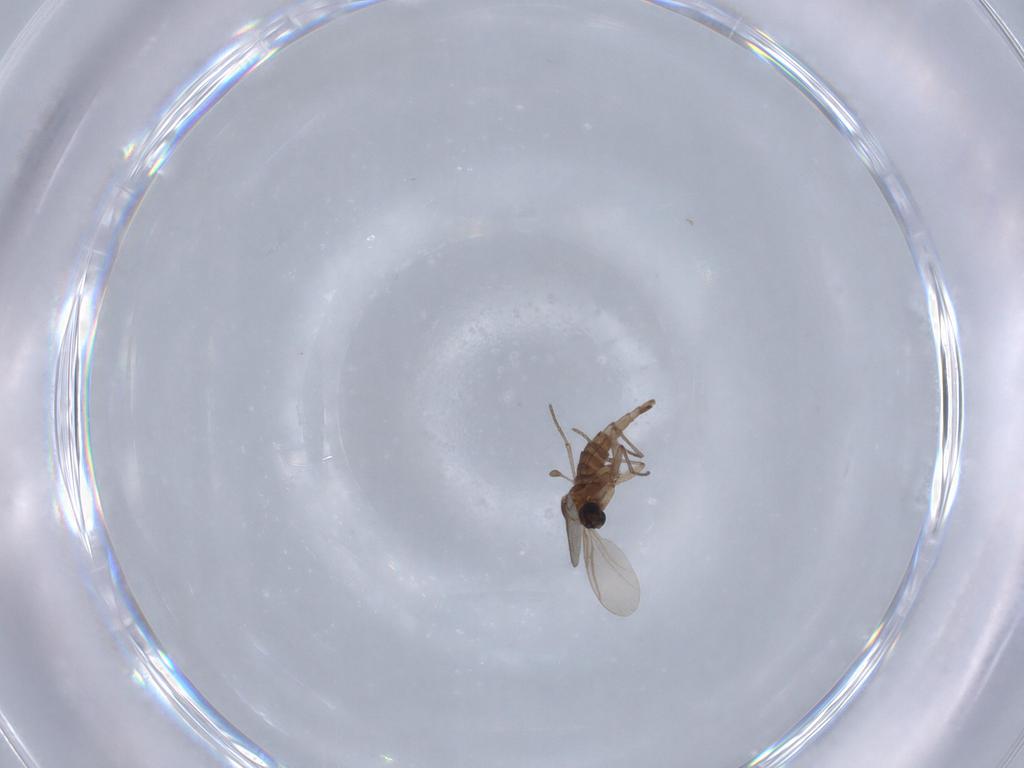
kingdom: Animalia
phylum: Arthropoda
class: Insecta
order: Diptera
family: Sciaridae
